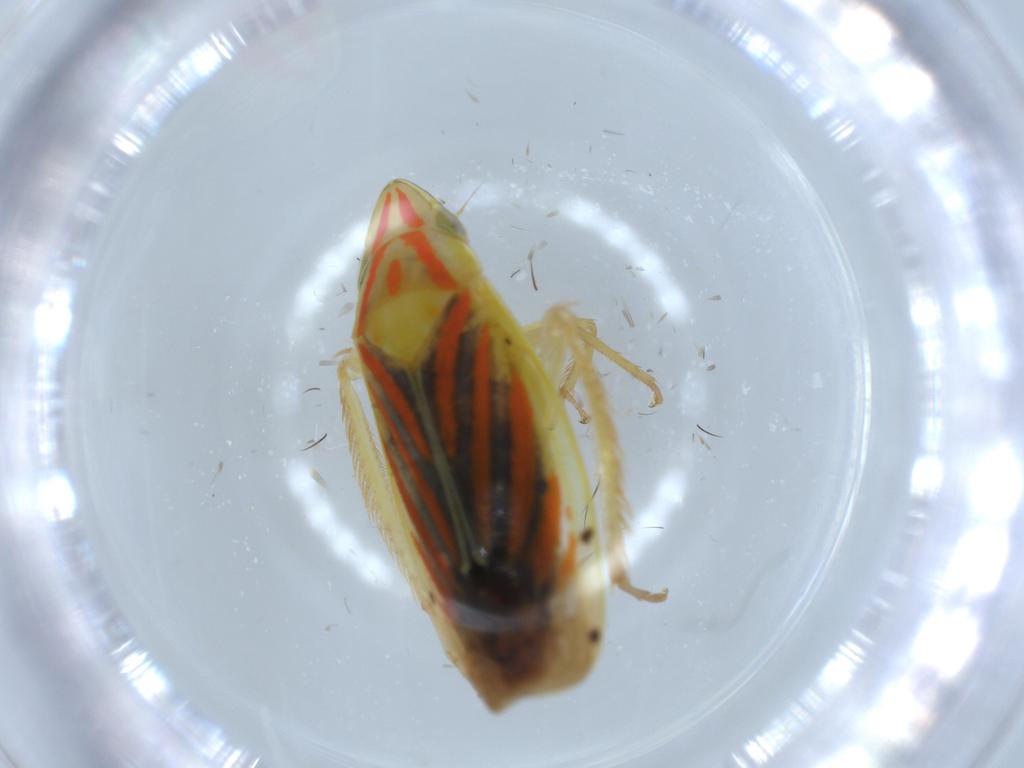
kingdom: Animalia
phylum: Arthropoda
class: Insecta
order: Hemiptera
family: Cicadellidae
